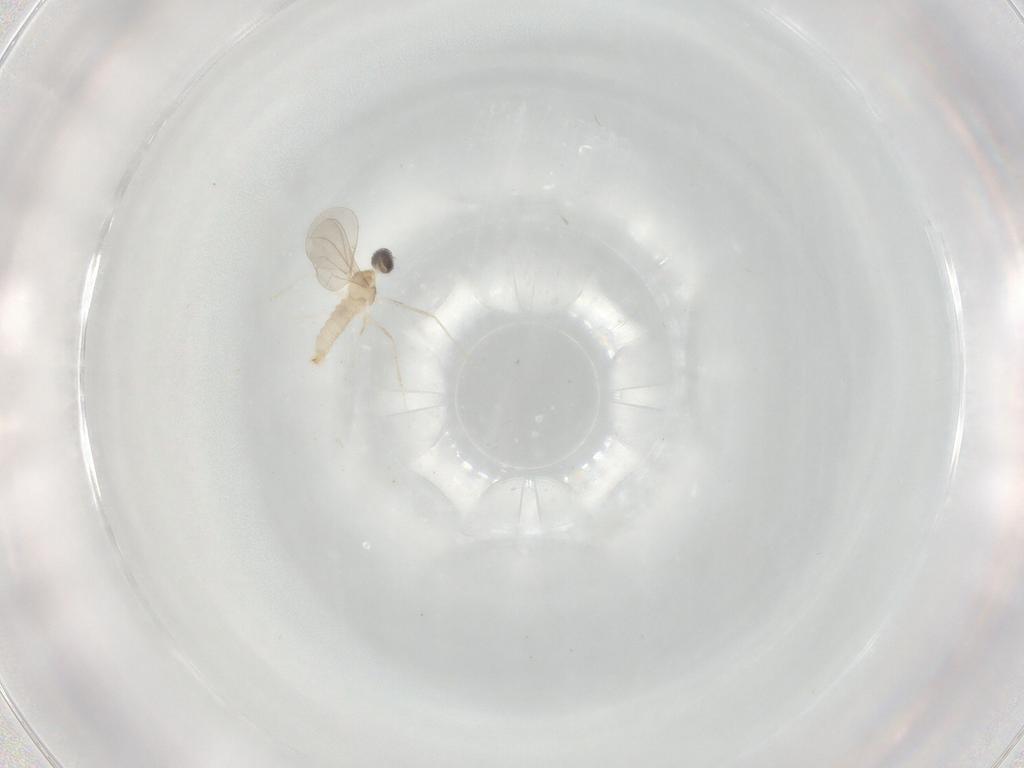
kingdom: Animalia
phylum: Arthropoda
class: Insecta
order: Diptera
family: Cecidomyiidae
